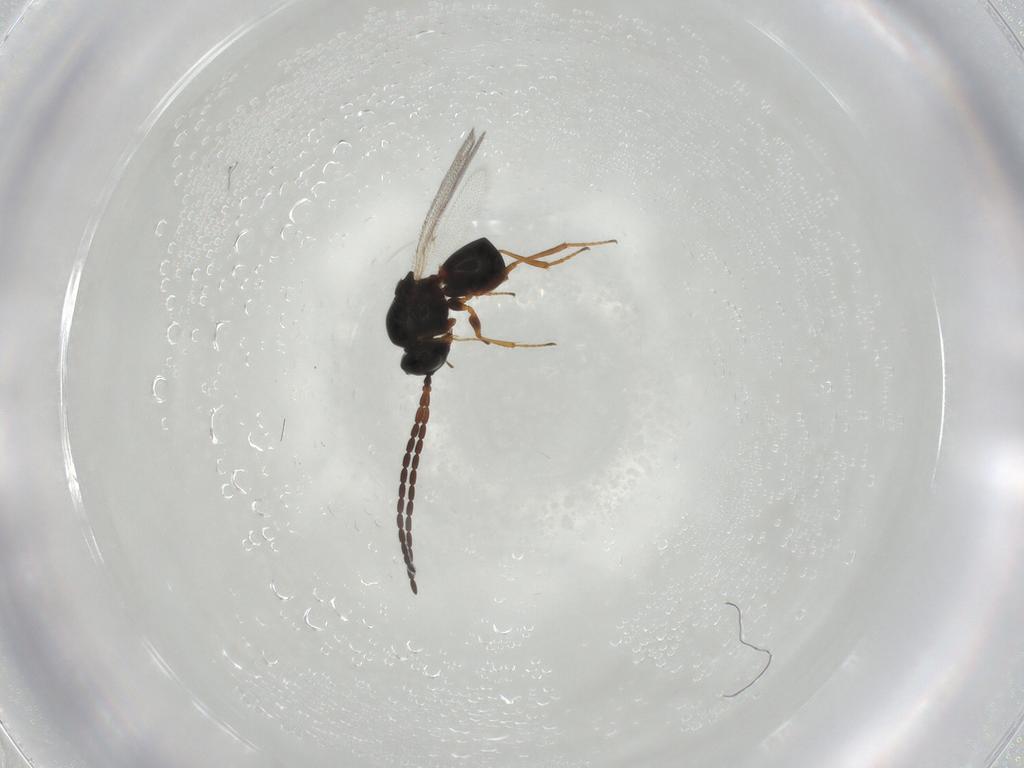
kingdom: Animalia
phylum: Arthropoda
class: Insecta
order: Hymenoptera
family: Figitidae
